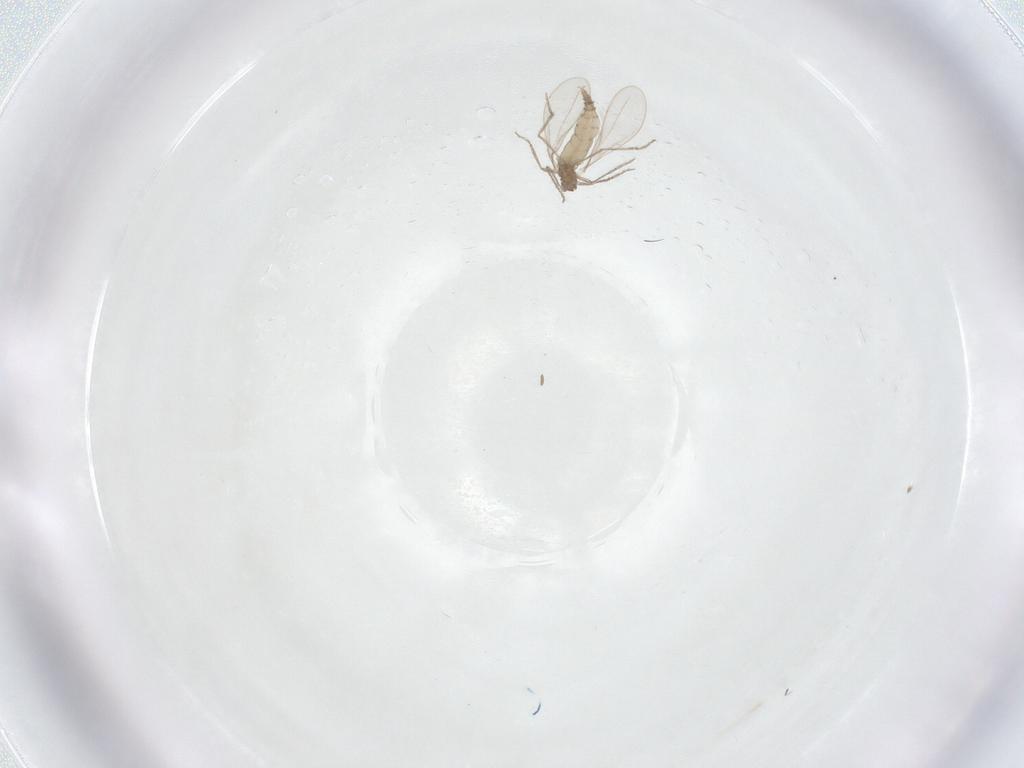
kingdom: Animalia
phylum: Arthropoda
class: Insecta
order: Diptera
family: Cecidomyiidae
